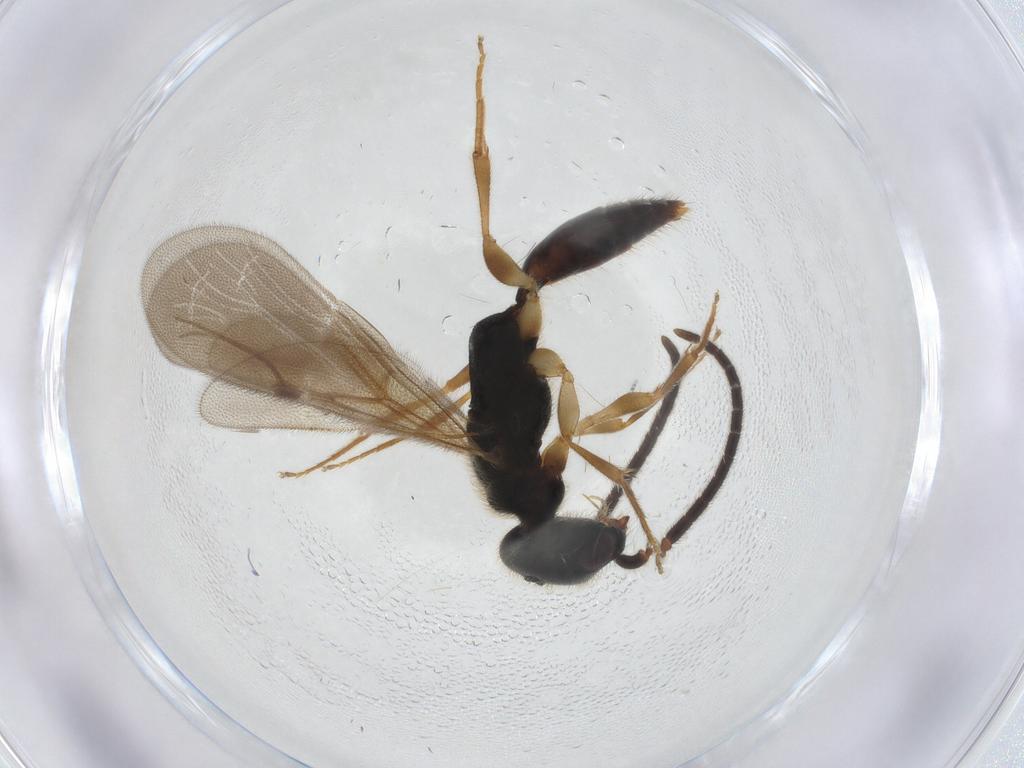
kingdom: Animalia
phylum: Arthropoda
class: Insecta
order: Hymenoptera
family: Bethylidae
